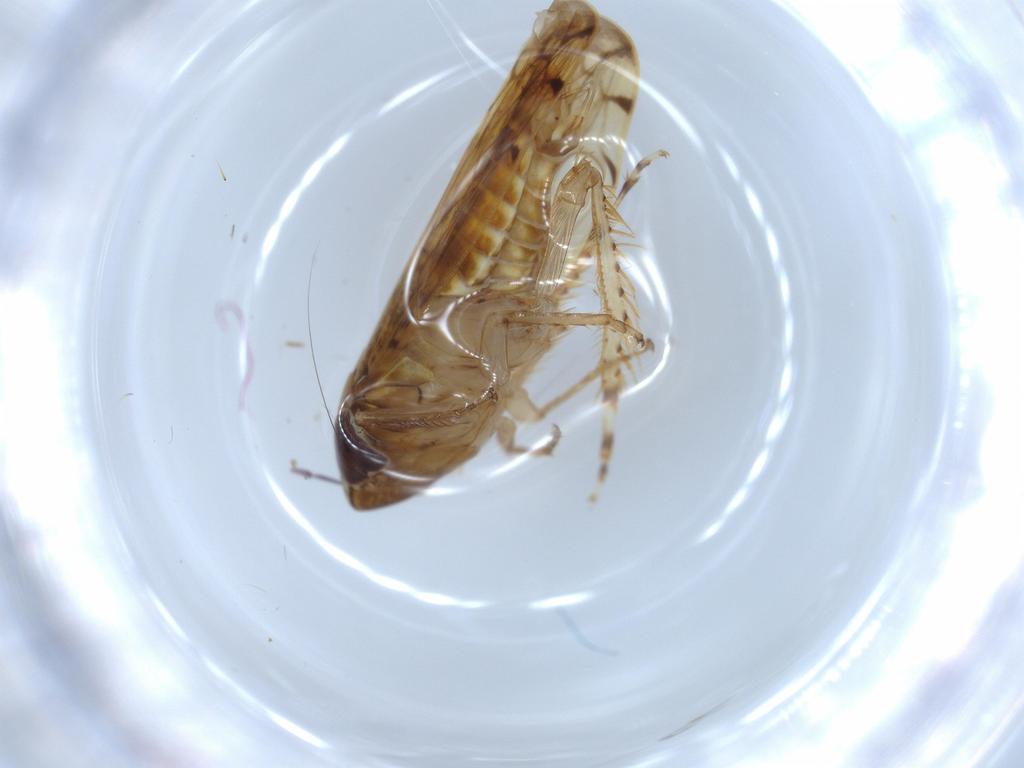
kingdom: Animalia
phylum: Arthropoda
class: Insecta
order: Hemiptera
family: Cicadellidae
